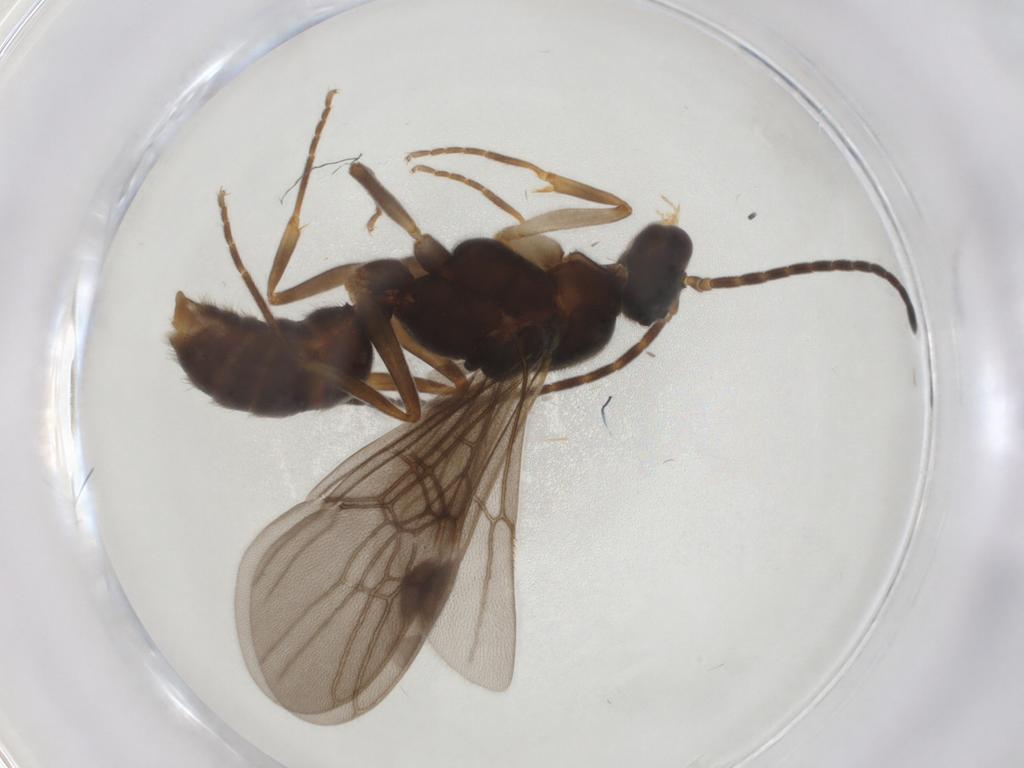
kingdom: Animalia
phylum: Arthropoda
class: Insecta
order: Hymenoptera
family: Formicidae
